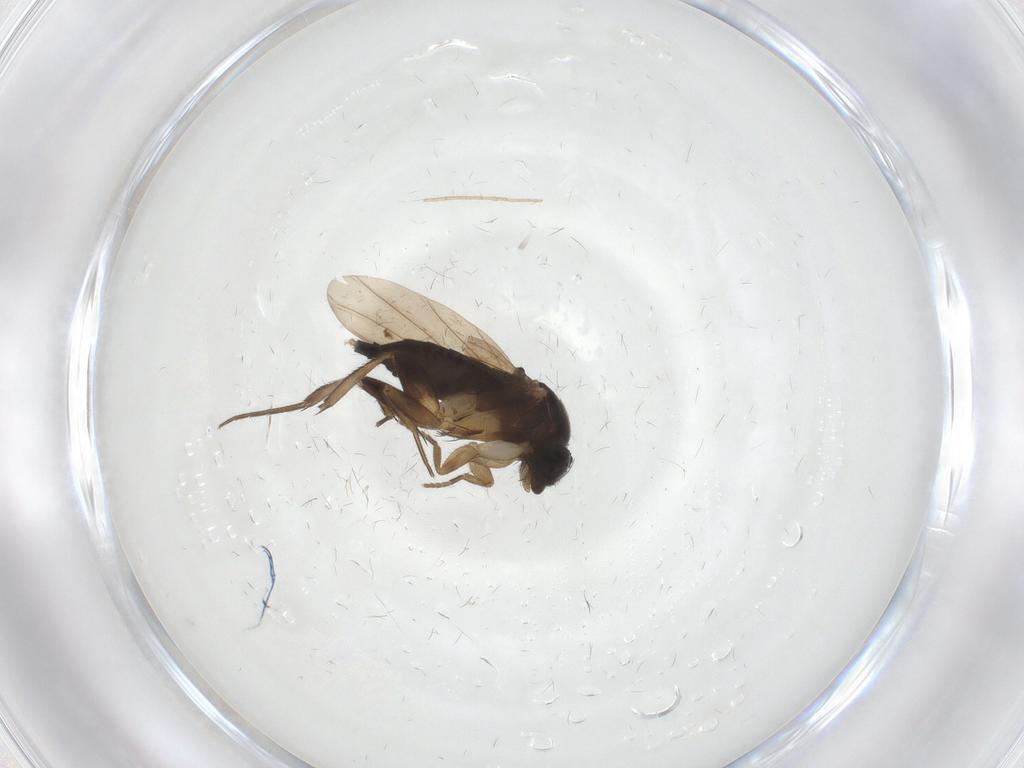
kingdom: Animalia
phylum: Arthropoda
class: Insecta
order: Diptera
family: Phoridae
